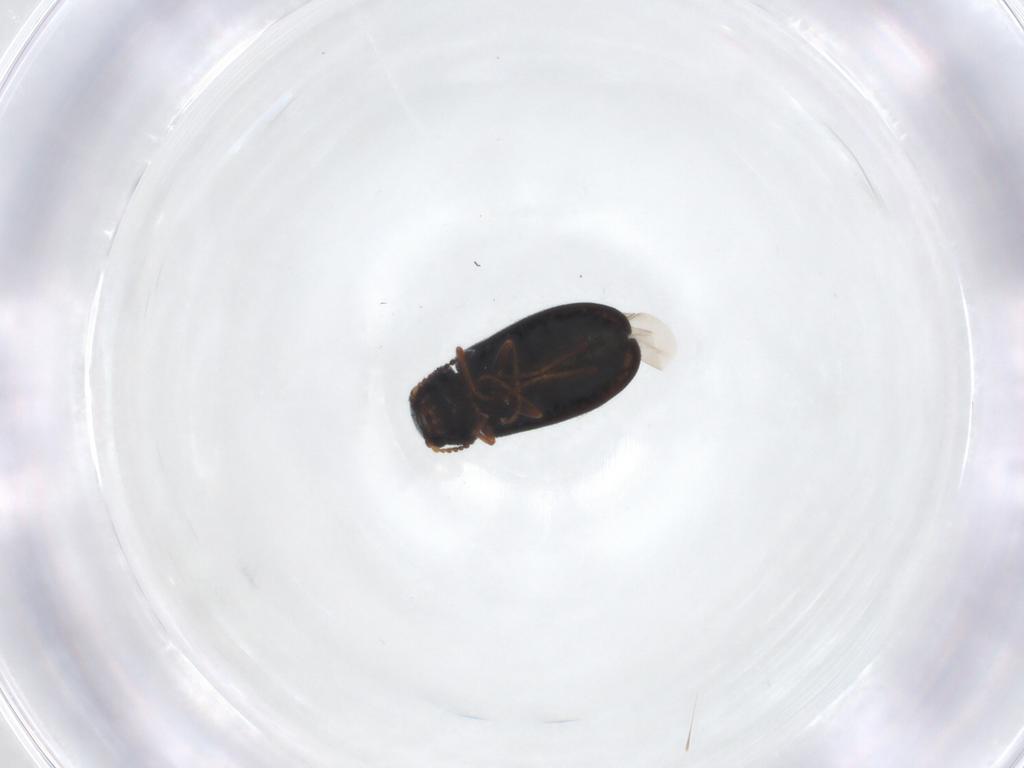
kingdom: Animalia
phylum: Arthropoda
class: Insecta
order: Coleoptera
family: Melyridae
